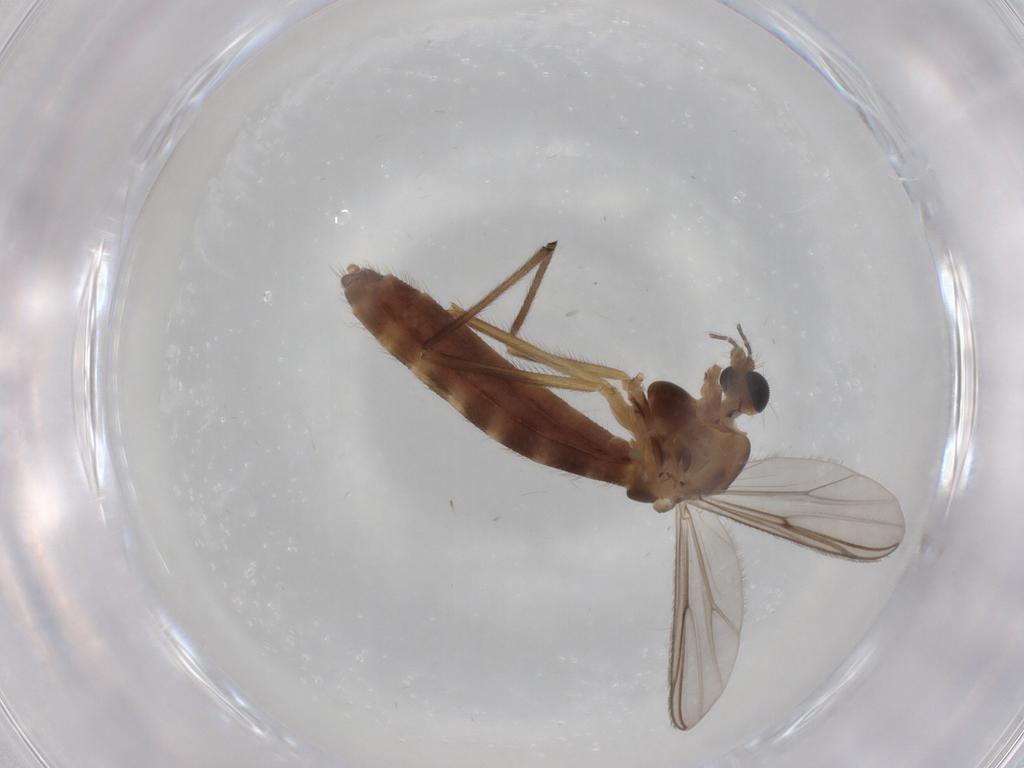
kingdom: Animalia
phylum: Arthropoda
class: Insecta
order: Diptera
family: Chironomidae
